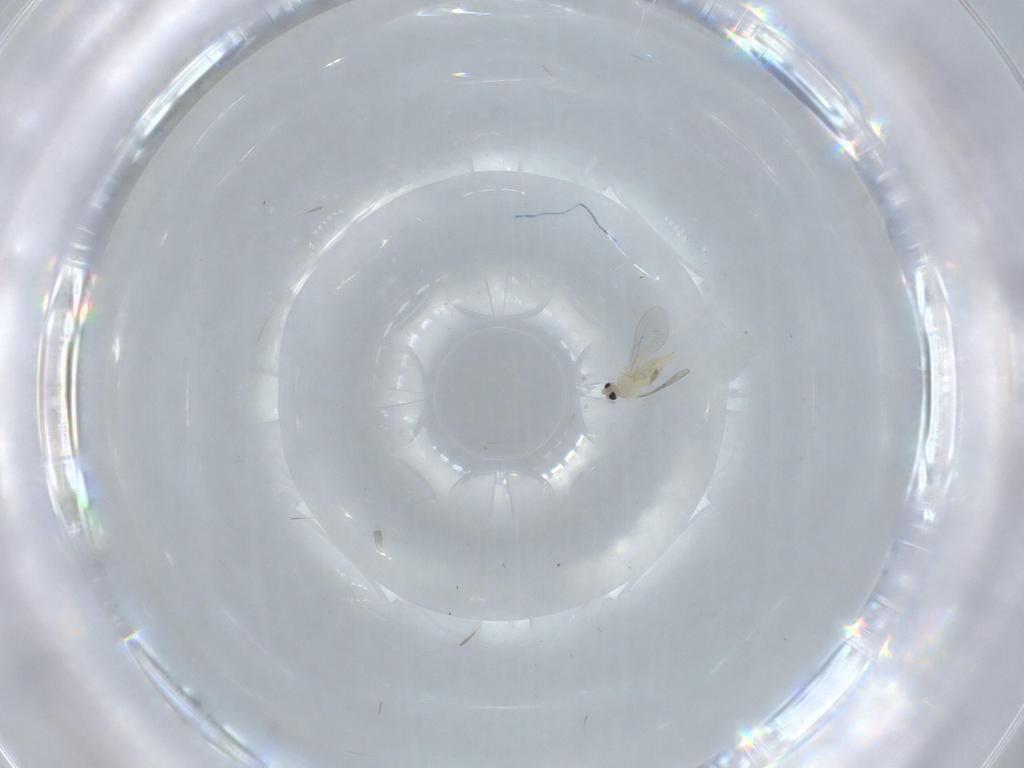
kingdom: Animalia
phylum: Arthropoda
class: Insecta
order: Diptera
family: Cecidomyiidae
